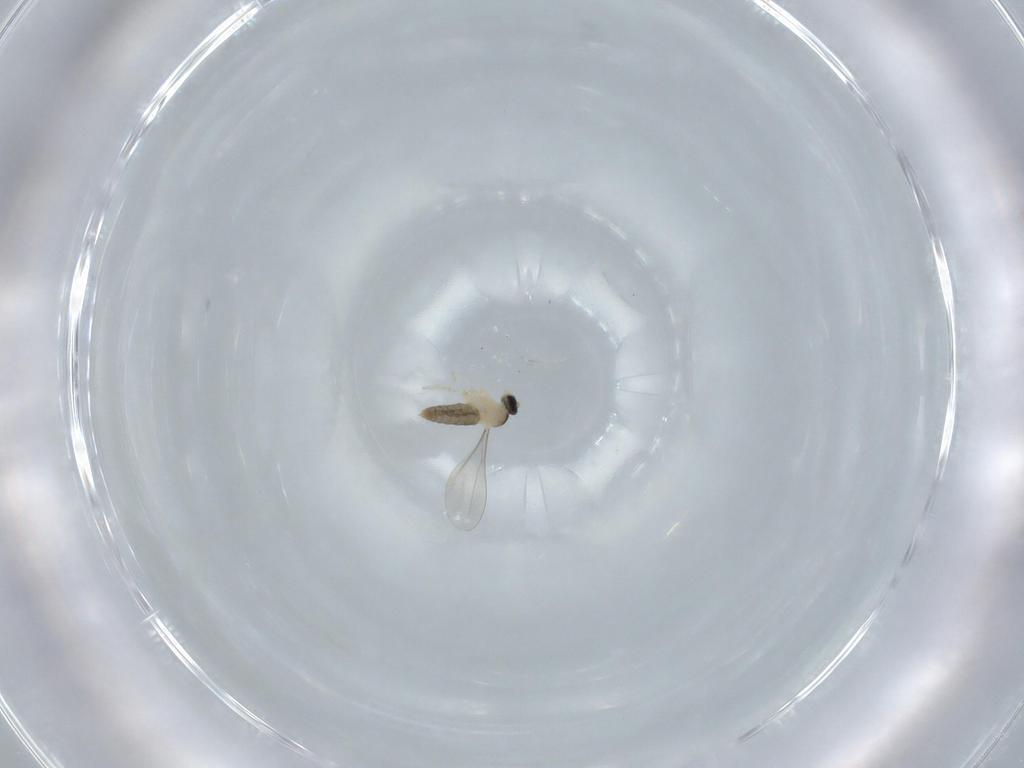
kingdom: Animalia
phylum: Arthropoda
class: Insecta
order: Diptera
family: Cecidomyiidae
